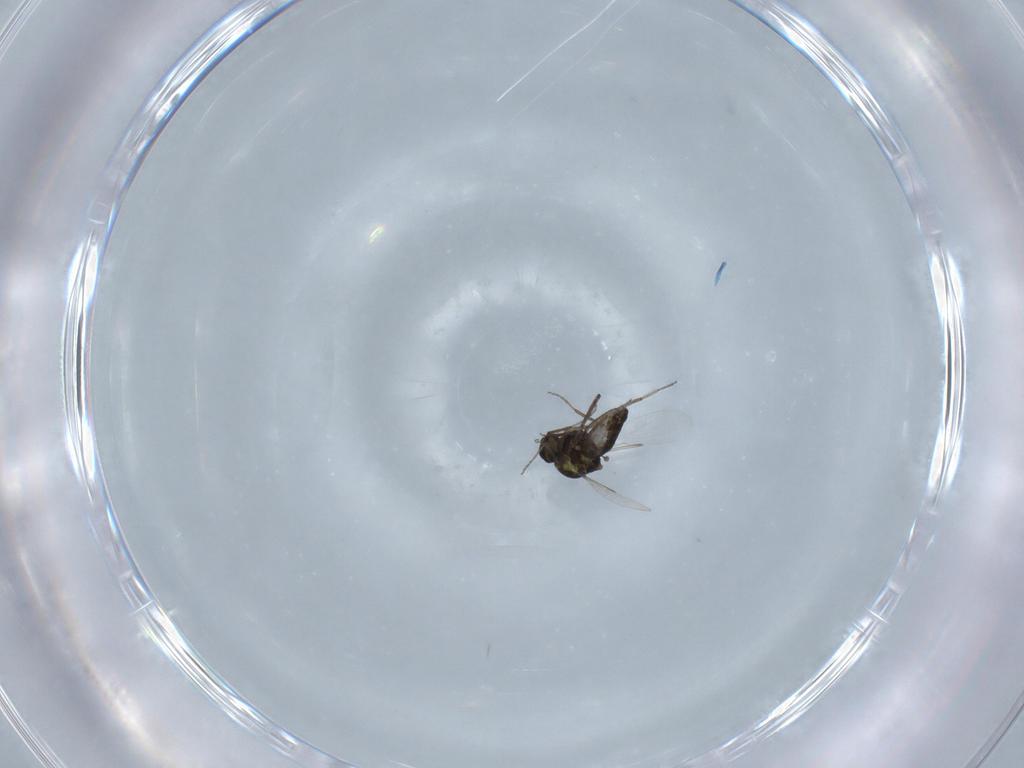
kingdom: Animalia
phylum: Arthropoda
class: Insecta
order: Diptera
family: Ceratopogonidae
